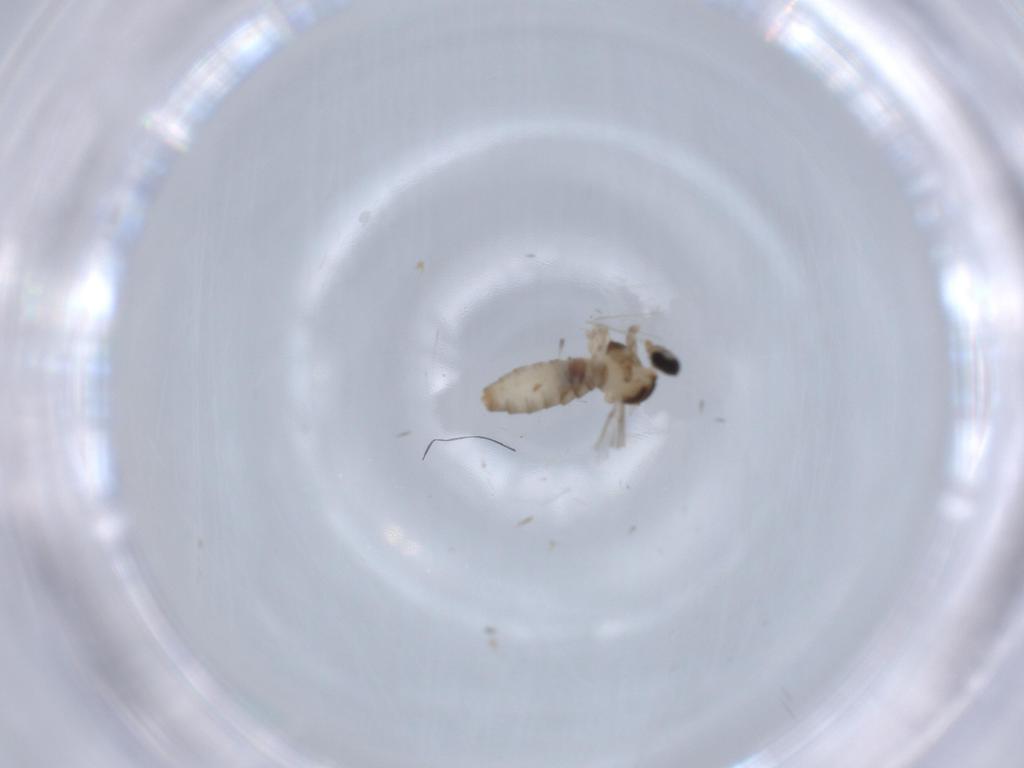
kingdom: Animalia
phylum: Arthropoda
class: Insecta
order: Diptera
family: Cecidomyiidae
